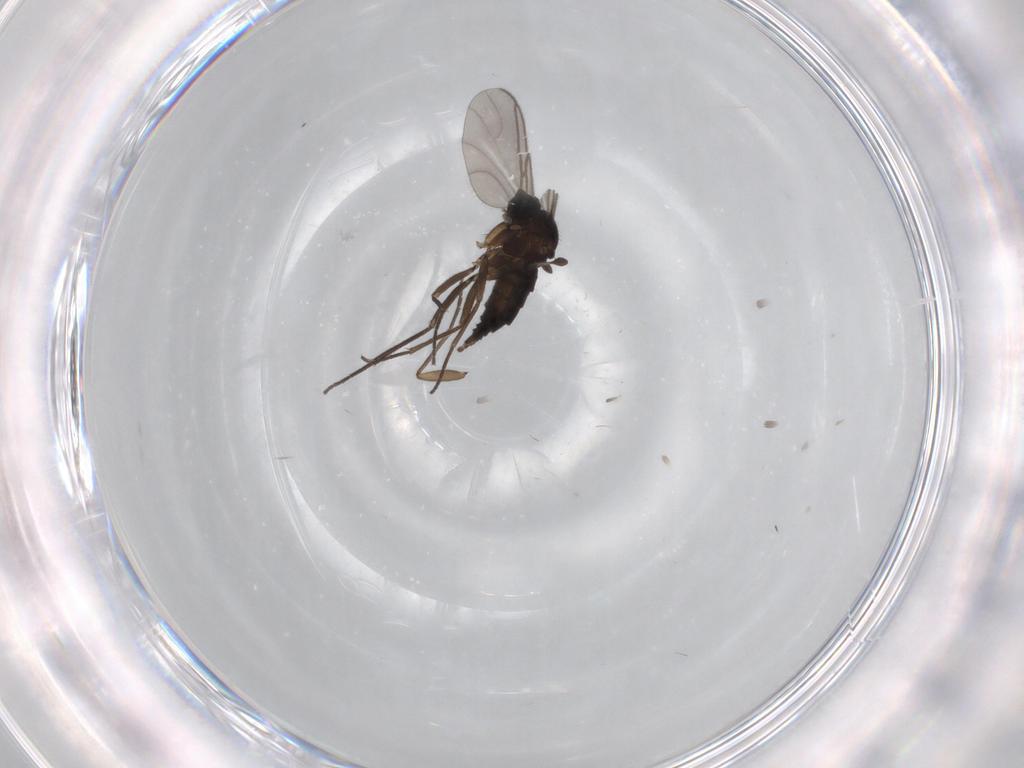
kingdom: Animalia
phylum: Arthropoda
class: Insecta
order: Diptera
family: Sciaridae
